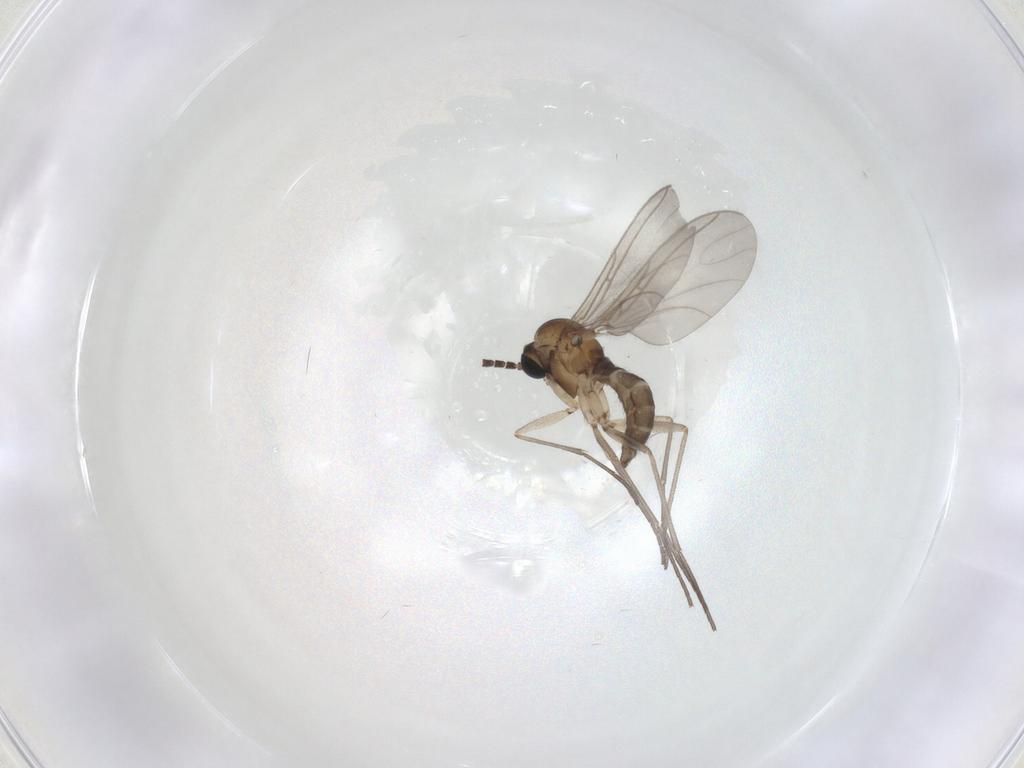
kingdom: Animalia
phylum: Arthropoda
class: Insecta
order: Diptera
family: Sciaridae
